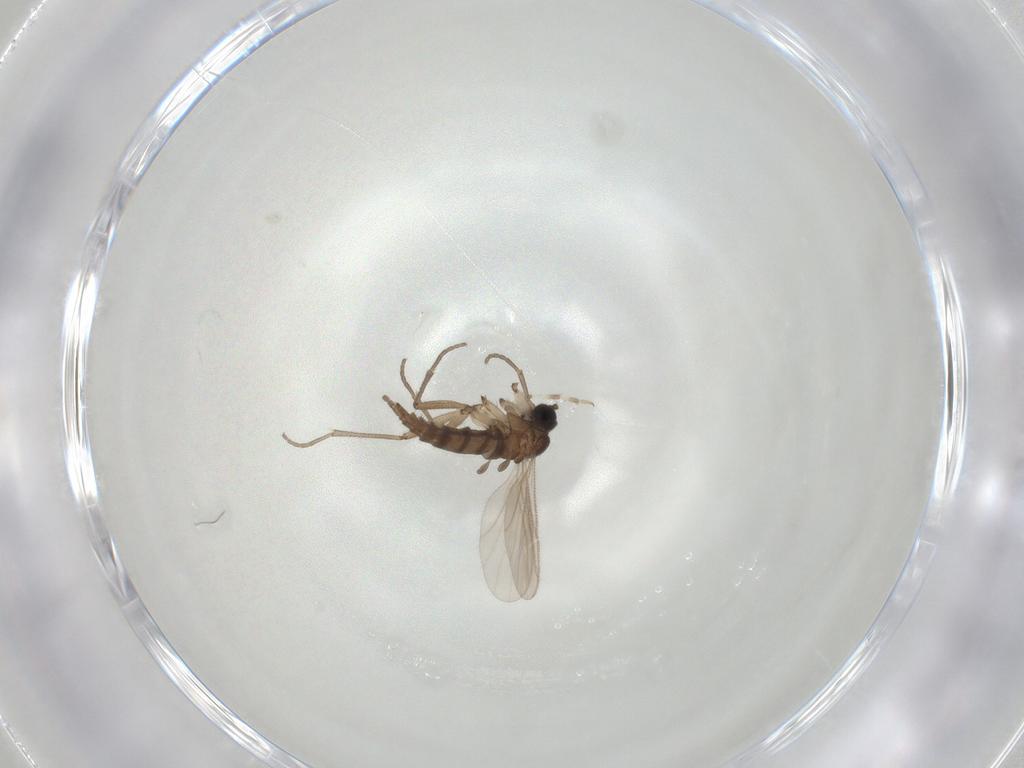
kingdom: Animalia
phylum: Arthropoda
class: Insecta
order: Diptera
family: Sciaridae
